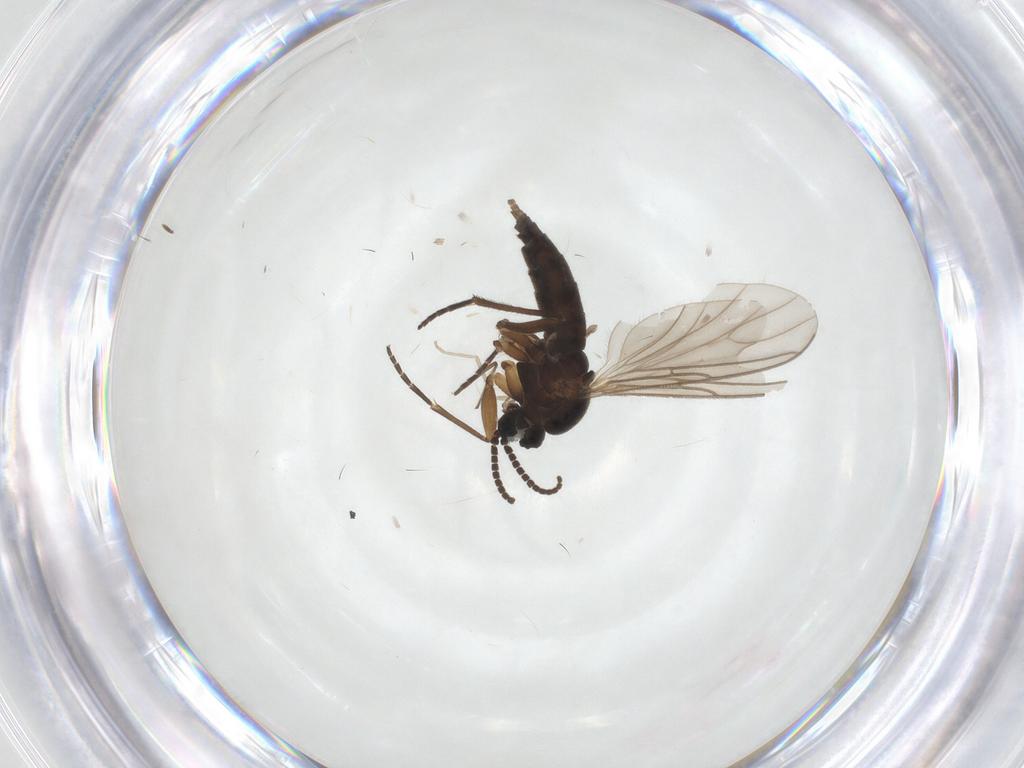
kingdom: Animalia
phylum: Arthropoda
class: Insecta
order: Diptera
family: Sciaridae
